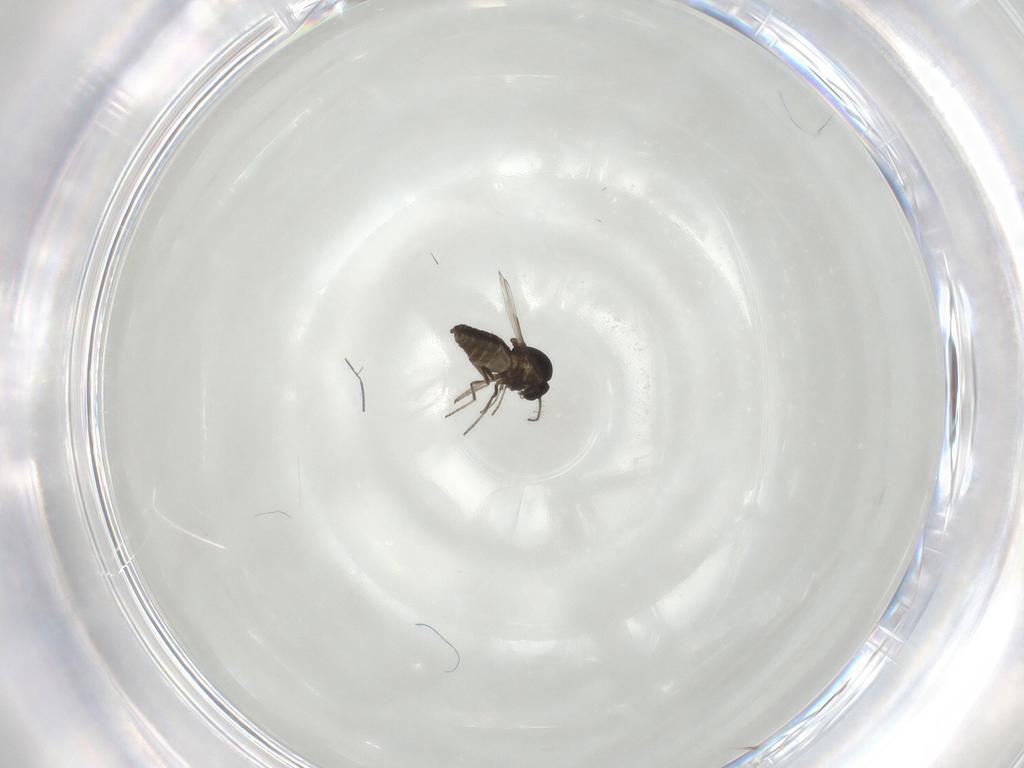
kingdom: Animalia
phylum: Arthropoda
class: Insecta
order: Diptera
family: Ceratopogonidae
